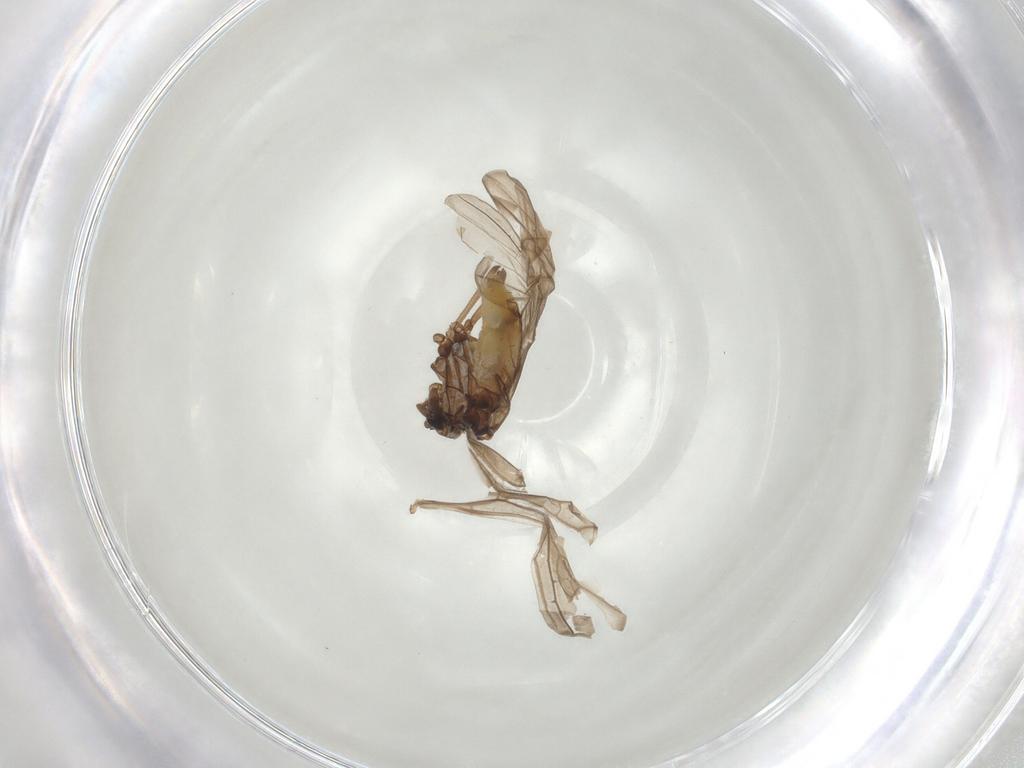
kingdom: Animalia
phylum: Arthropoda
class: Insecta
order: Neuroptera
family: Coniopterygidae
